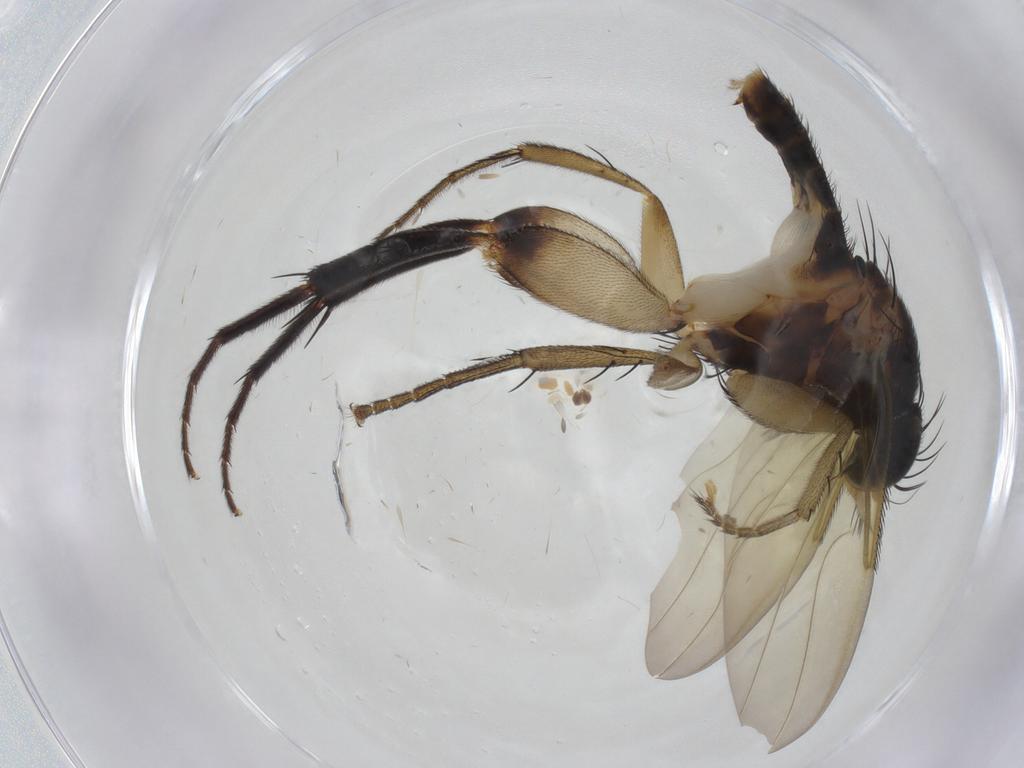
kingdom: Animalia
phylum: Arthropoda
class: Insecta
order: Diptera
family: Phoridae
